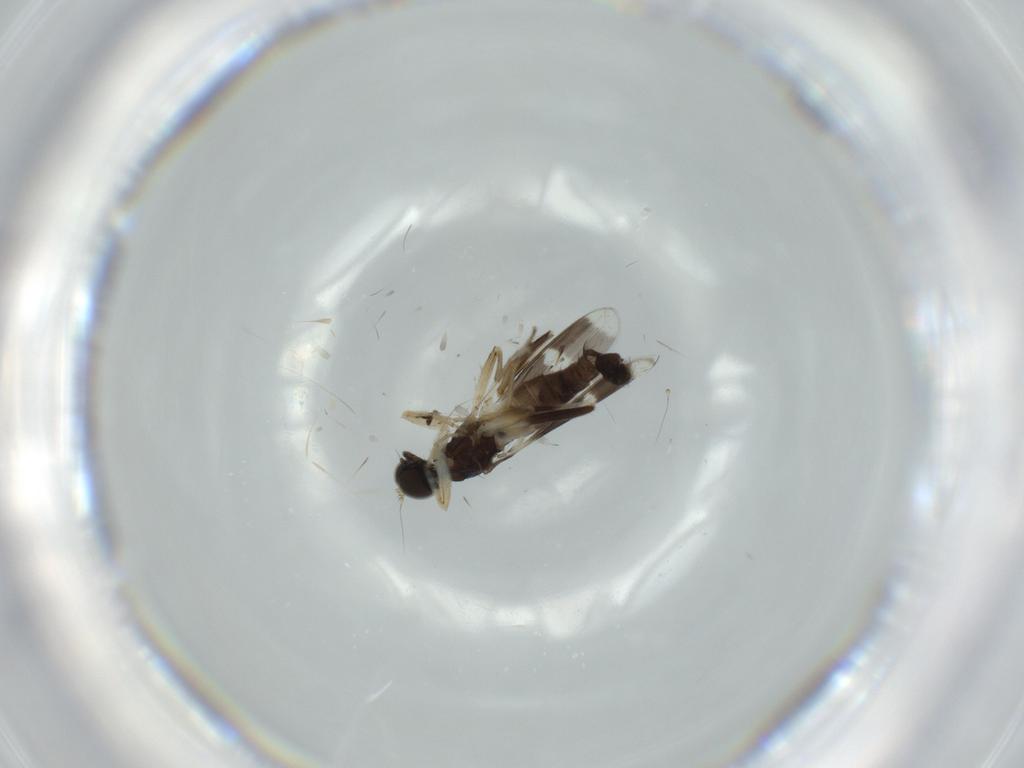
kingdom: Animalia
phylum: Arthropoda
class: Insecta
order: Diptera
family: Hybotidae
